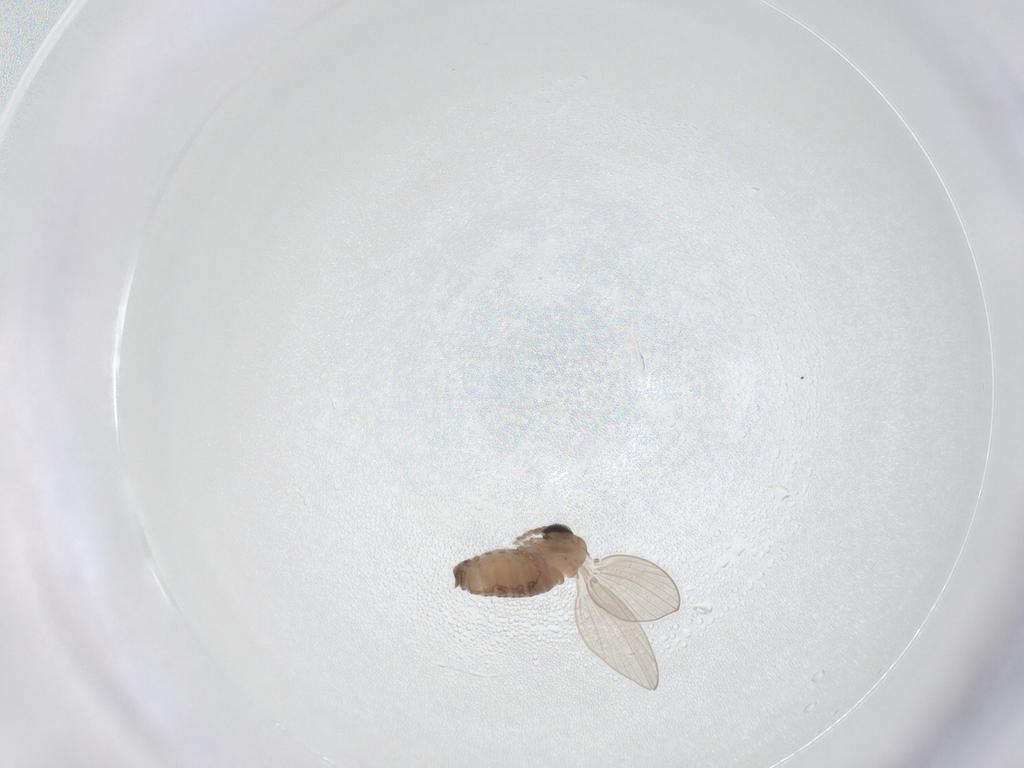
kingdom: Animalia
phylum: Arthropoda
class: Insecta
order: Diptera
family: Psychodidae
